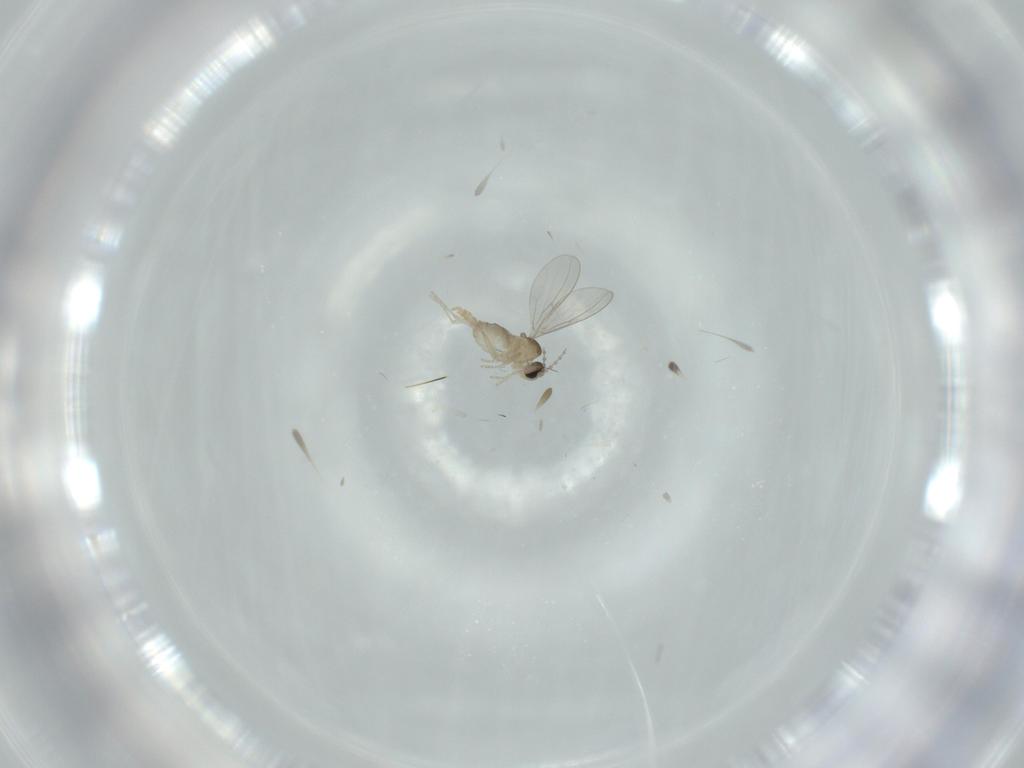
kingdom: Animalia
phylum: Arthropoda
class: Insecta
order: Diptera
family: Cecidomyiidae
